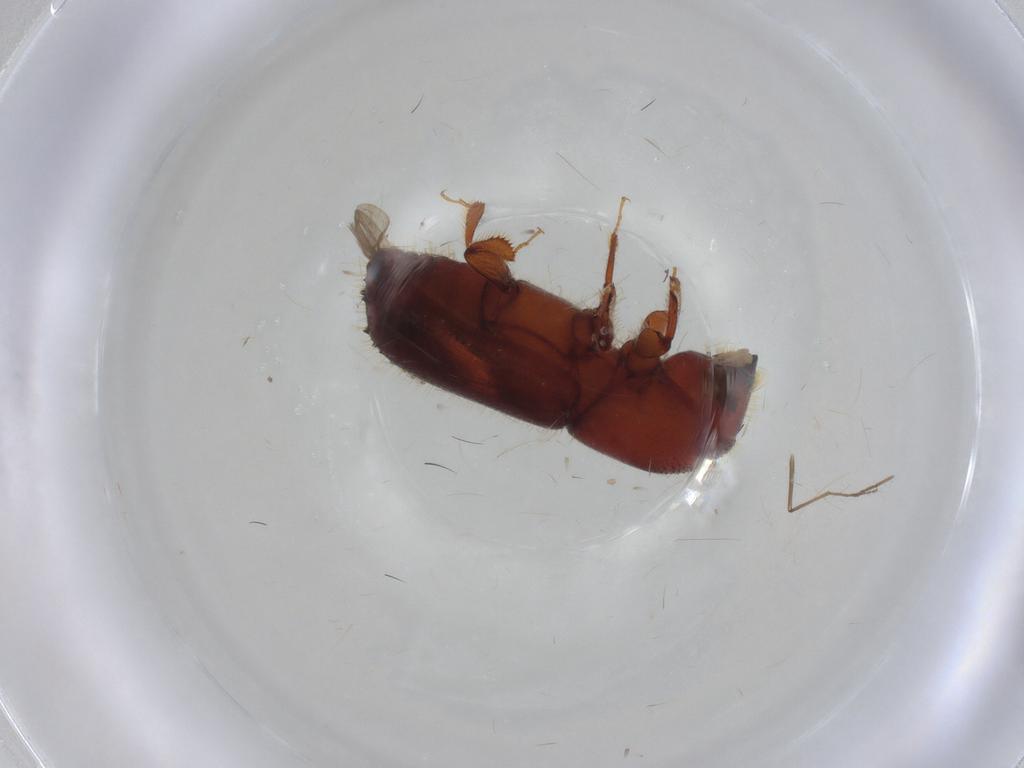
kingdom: Animalia
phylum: Arthropoda
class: Insecta
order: Coleoptera
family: Curculionidae
